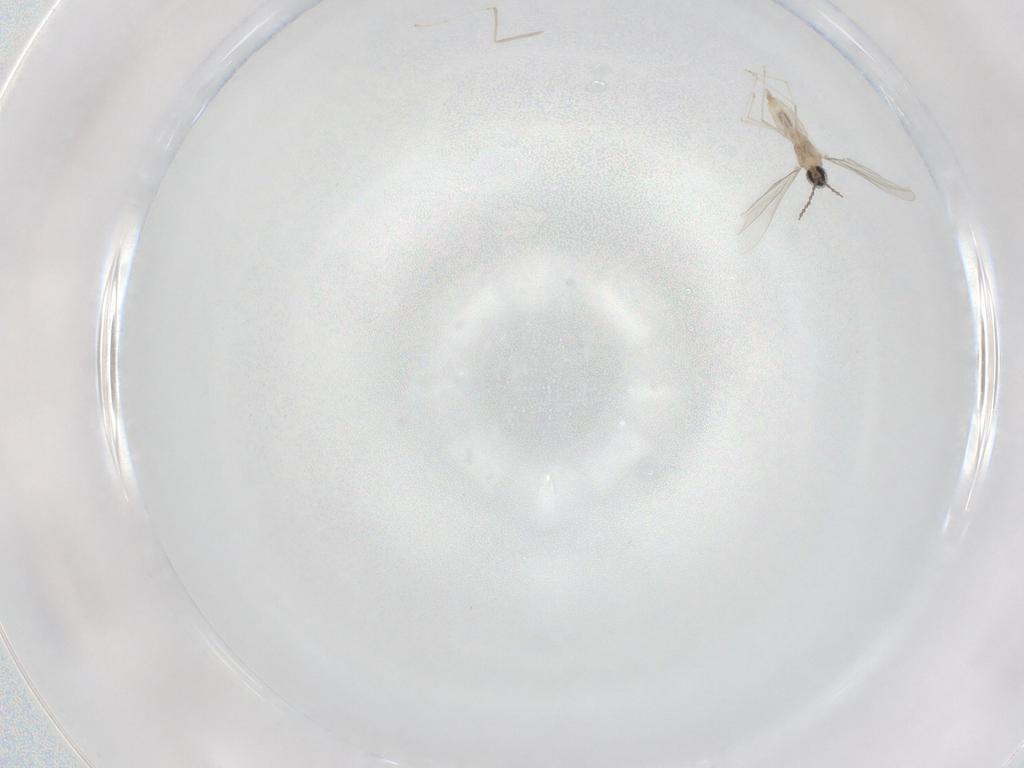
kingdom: Animalia
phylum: Arthropoda
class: Insecta
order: Diptera
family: Cecidomyiidae
